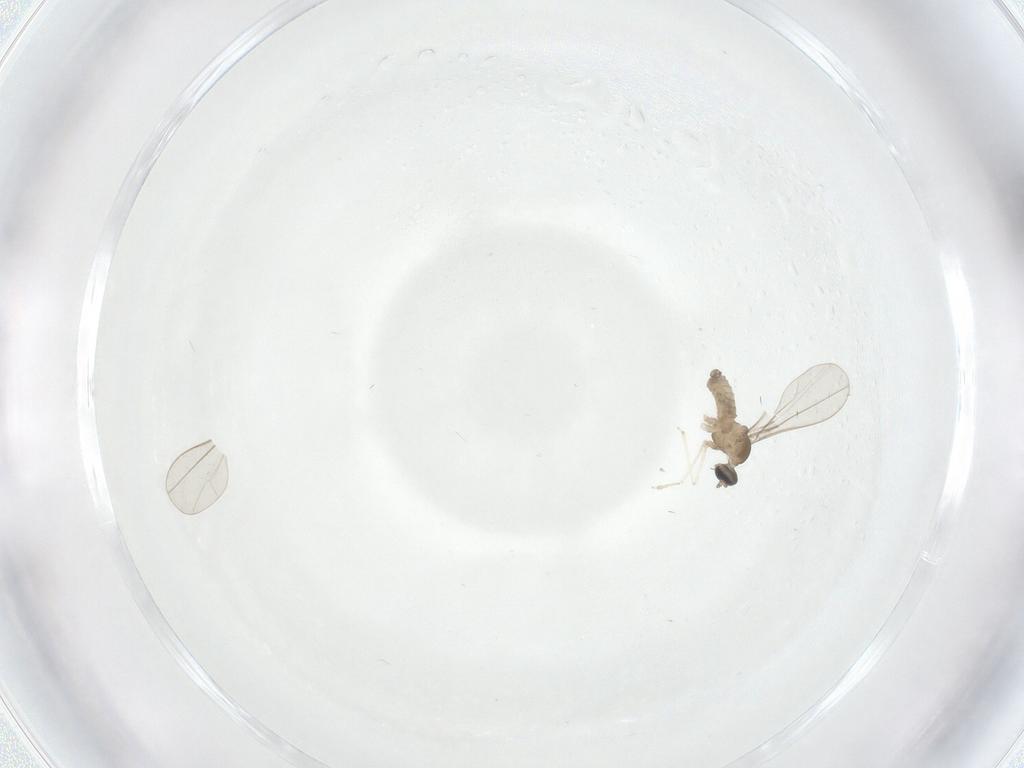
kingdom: Animalia
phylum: Arthropoda
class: Insecta
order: Diptera
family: Cecidomyiidae
